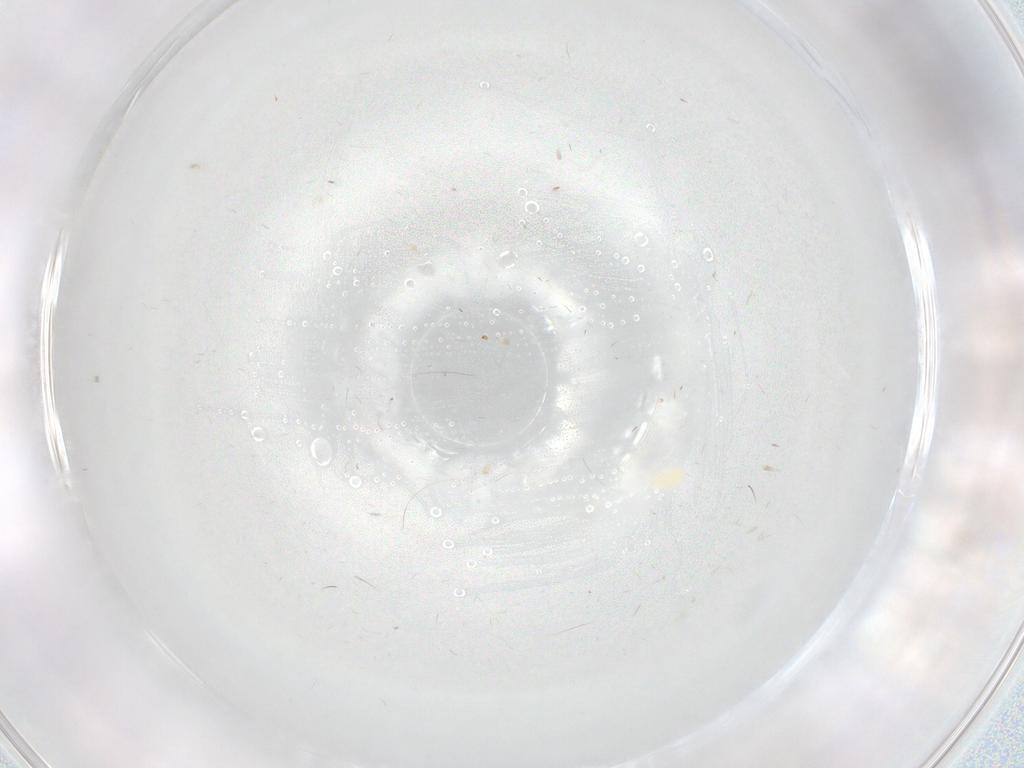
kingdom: Animalia
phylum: Arthropoda
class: Insecta
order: Diptera
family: Chironomidae
